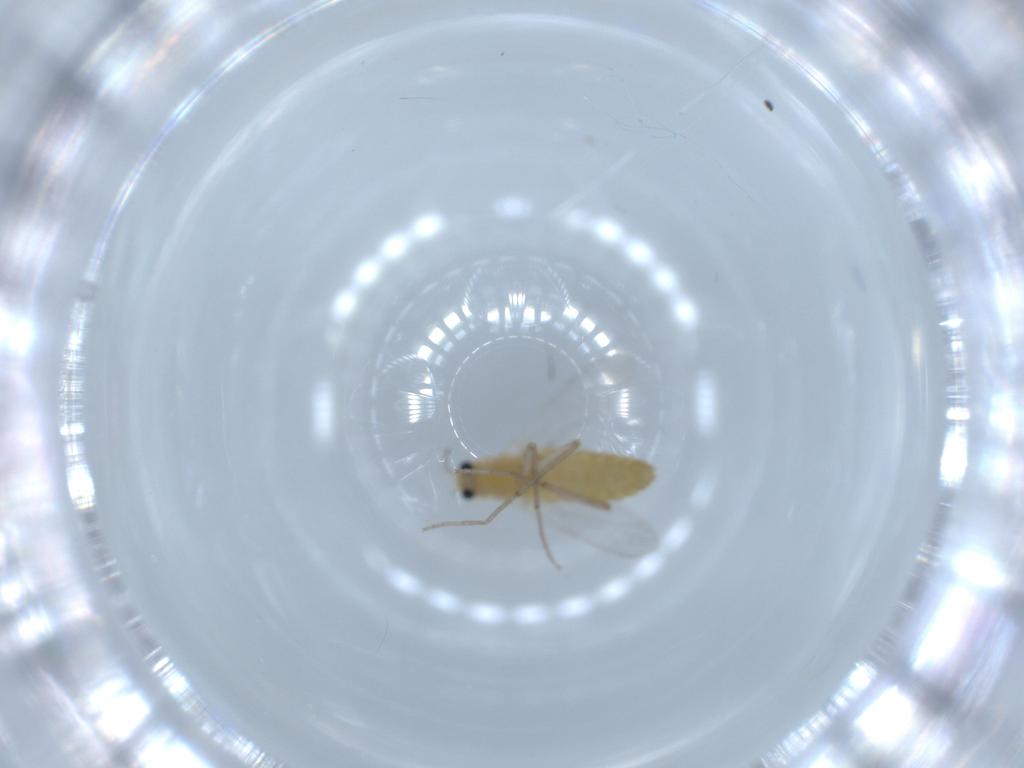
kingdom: Animalia
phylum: Arthropoda
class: Insecta
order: Diptera
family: Chironomidae
